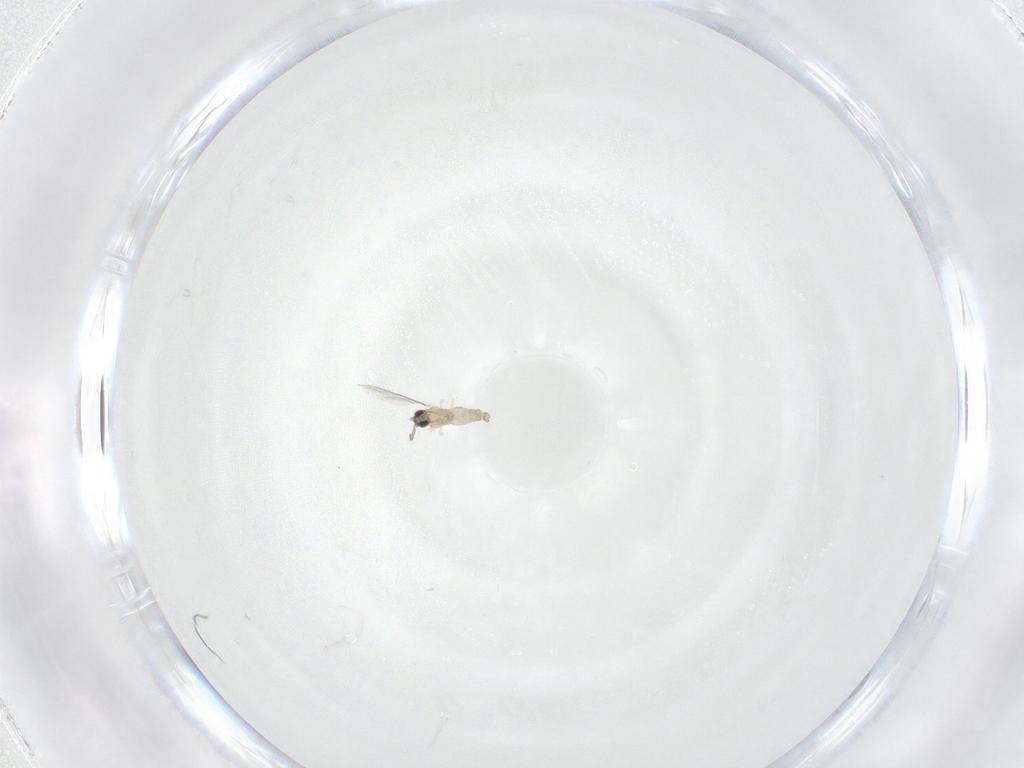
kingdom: Animalia
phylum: Arthropoda
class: Insecta
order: Diptera
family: Psychodidae
